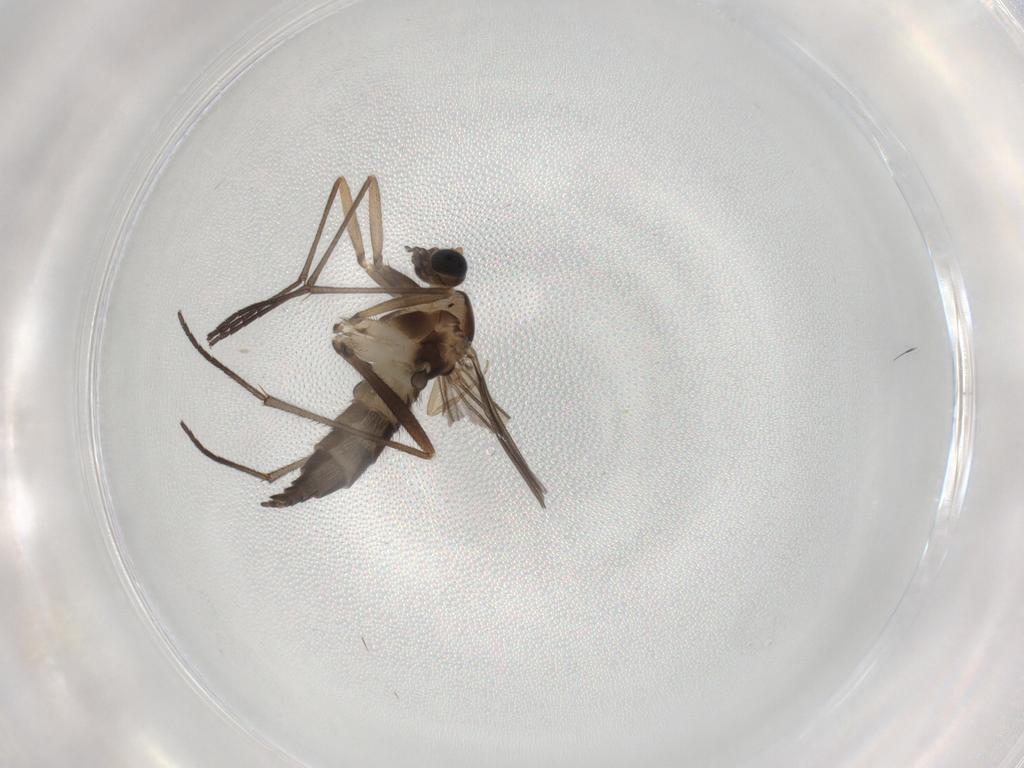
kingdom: Animalia
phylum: Arthropoda
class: Insecta
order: Diptera
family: Sciaridae
